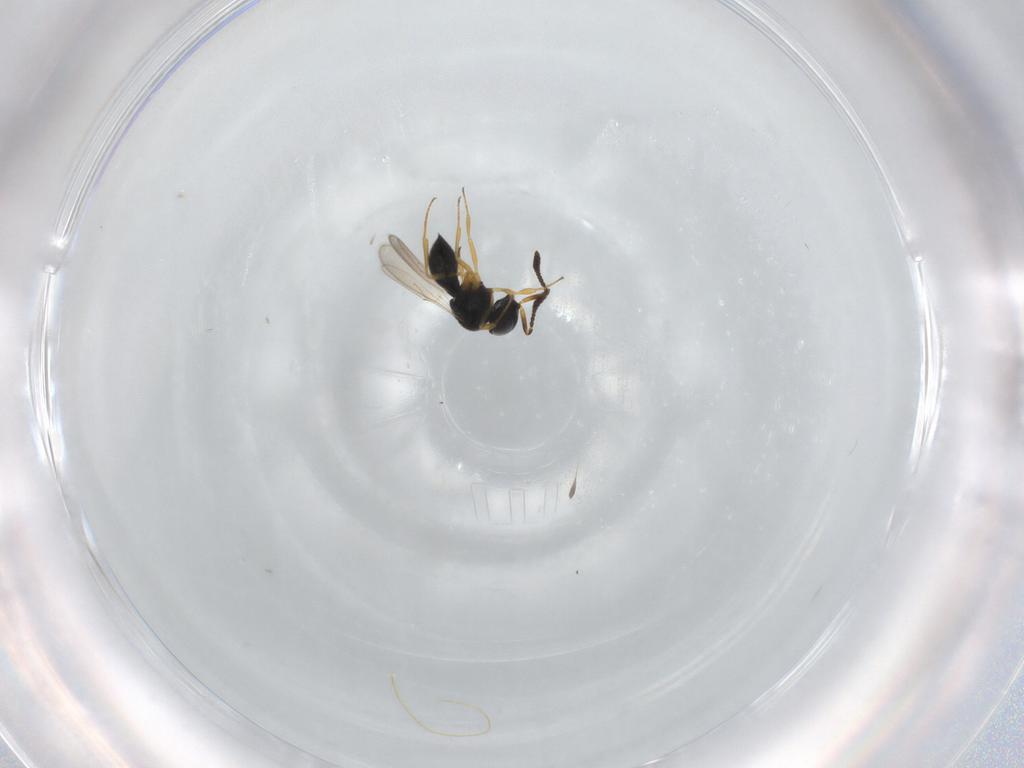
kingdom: Animalia
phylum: Arthropoda
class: Insecta
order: Hymenoptera
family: Scelionidae
